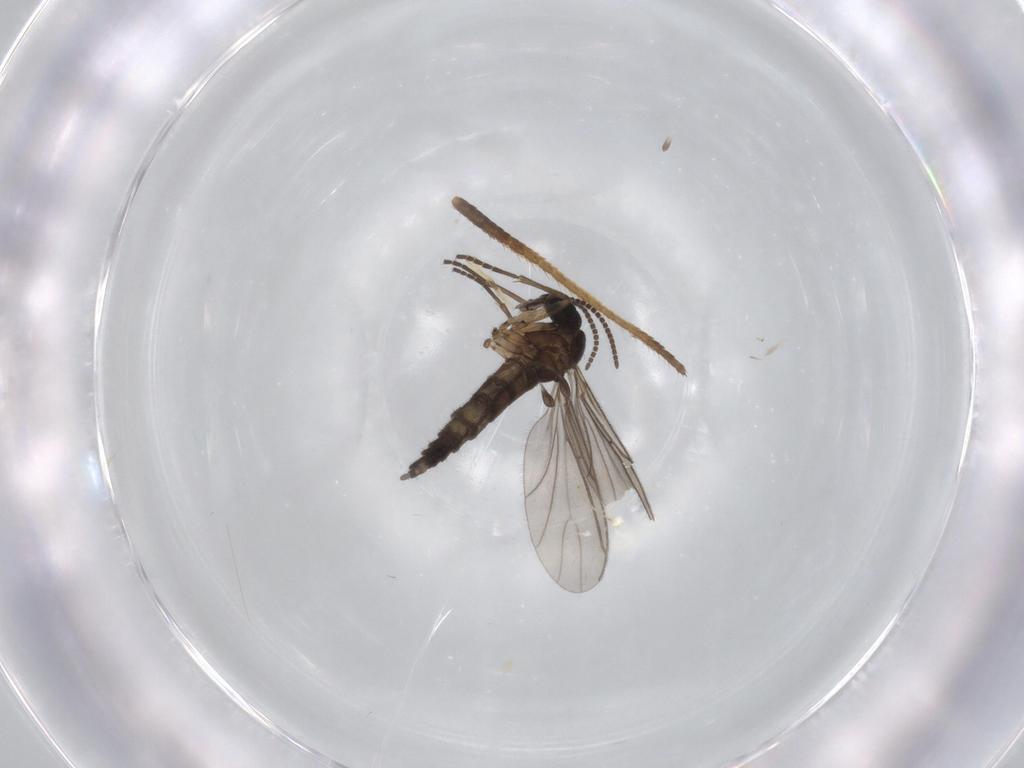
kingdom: Animalia
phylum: Arthropoda
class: Insecta
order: Diptera
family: Sciaridae
